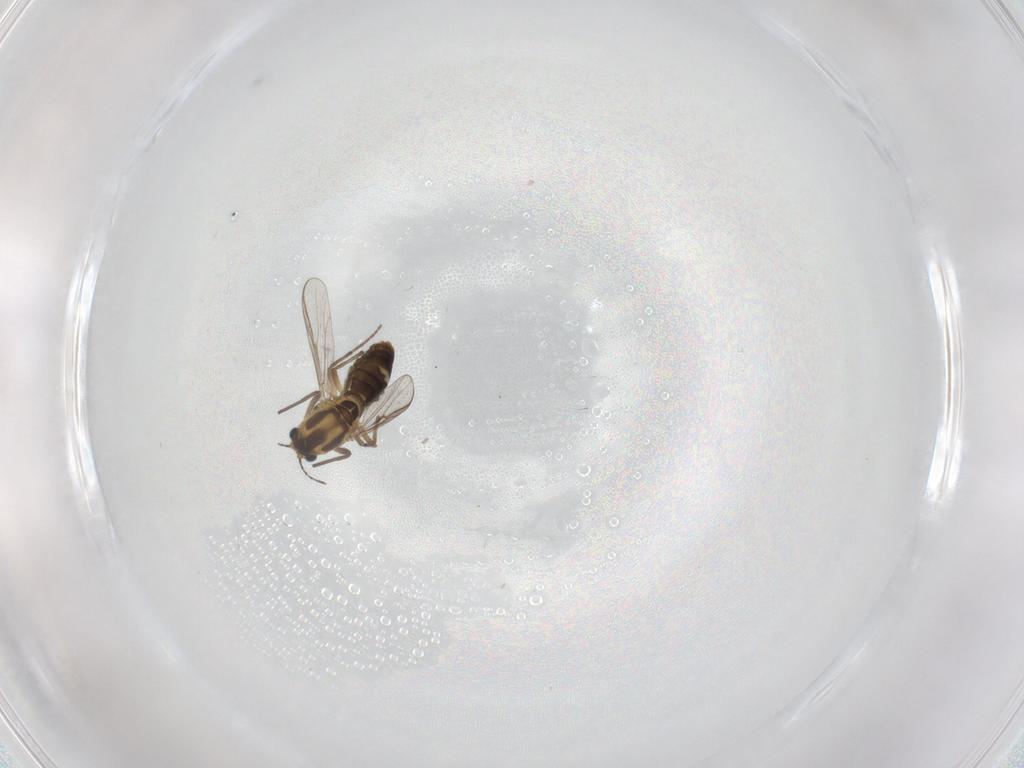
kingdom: Animalia
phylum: Arthropoda
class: Insecta
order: Diptera
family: Chironomidae
